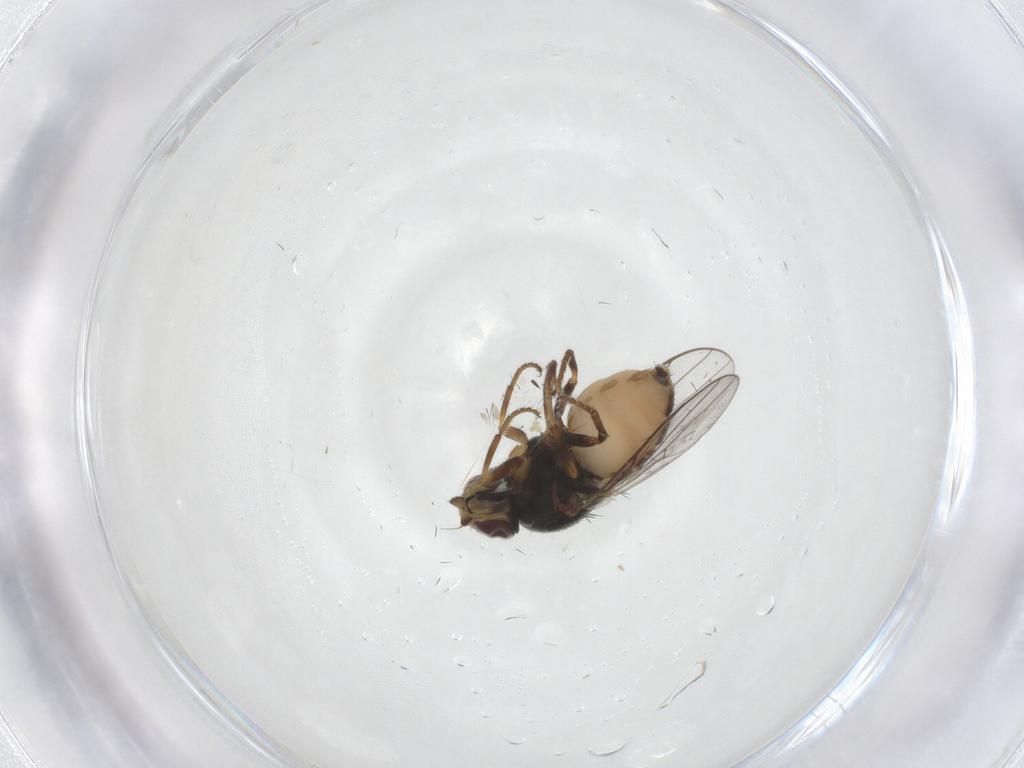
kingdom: Animalia
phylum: Arthropoda
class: Insecta
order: Diptera
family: Chloropidae
